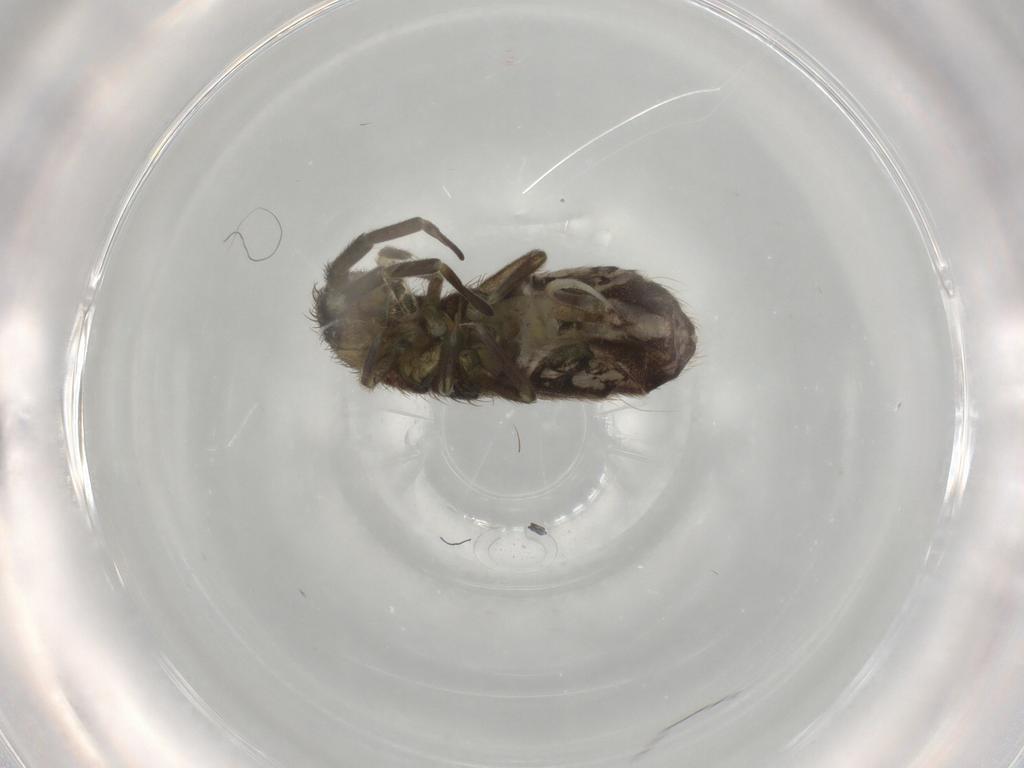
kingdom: Animalia
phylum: Arthropoda
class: Collembola
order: Entomobryomorpha
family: Isotomidae
